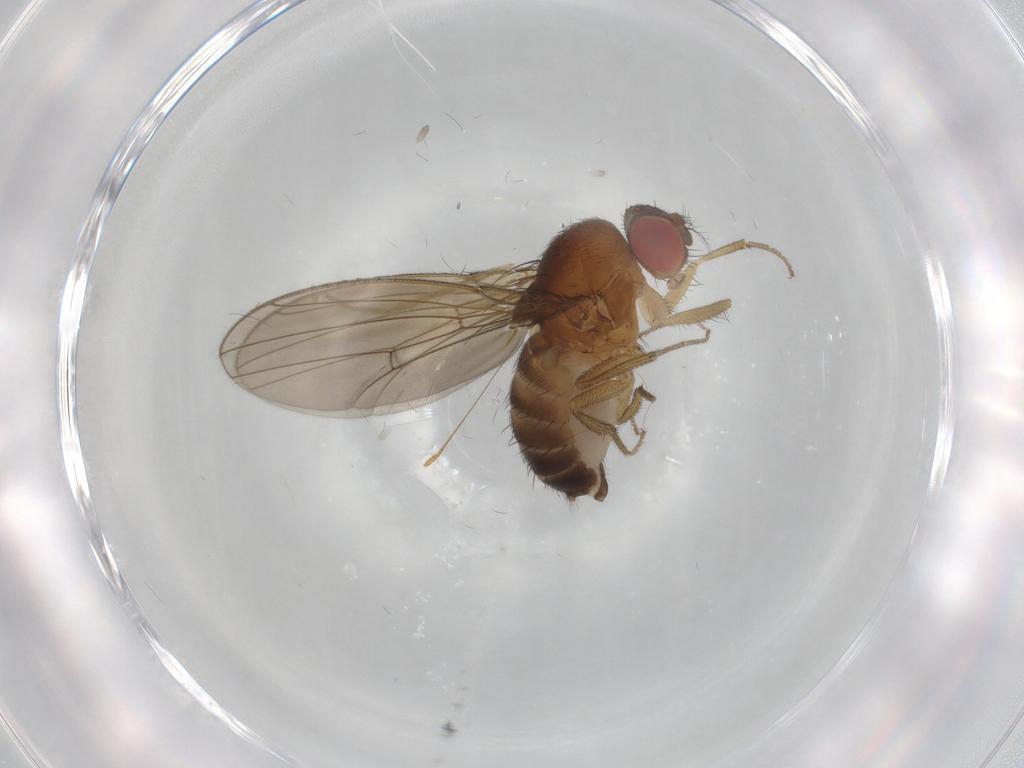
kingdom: Animalia
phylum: Arthropoda
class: Insecta
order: Diptera
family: Drosophilidae
